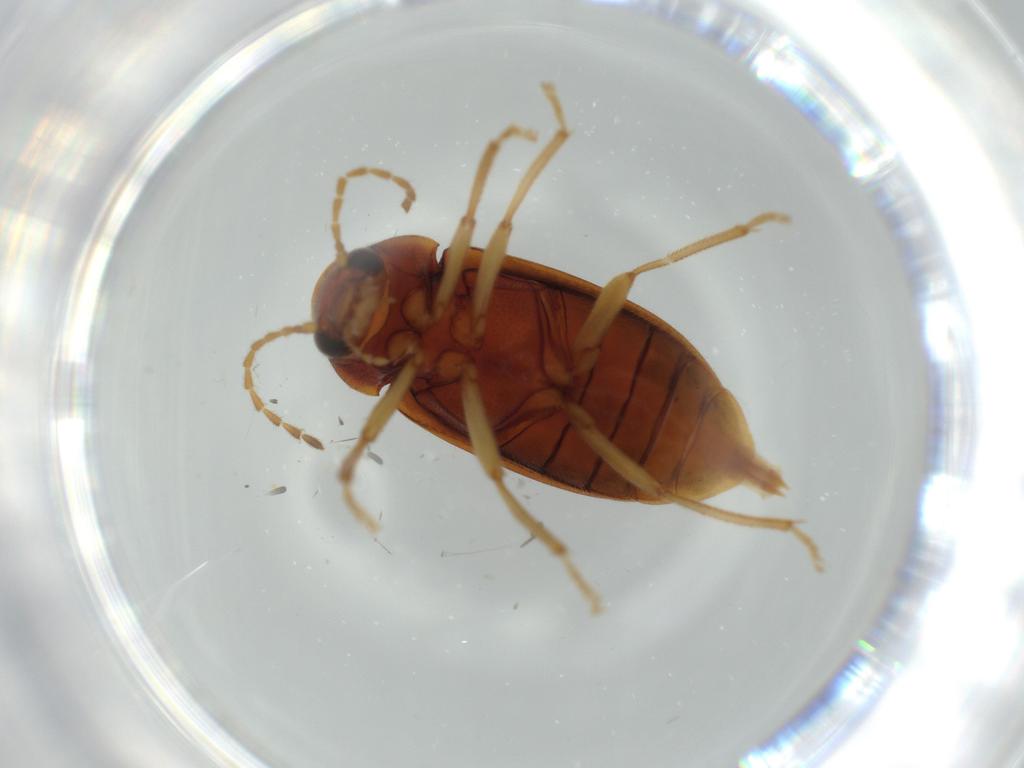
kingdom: Animalia
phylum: Arthropoda
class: Insecta
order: Coleoptera
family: Ptilodactylidae
